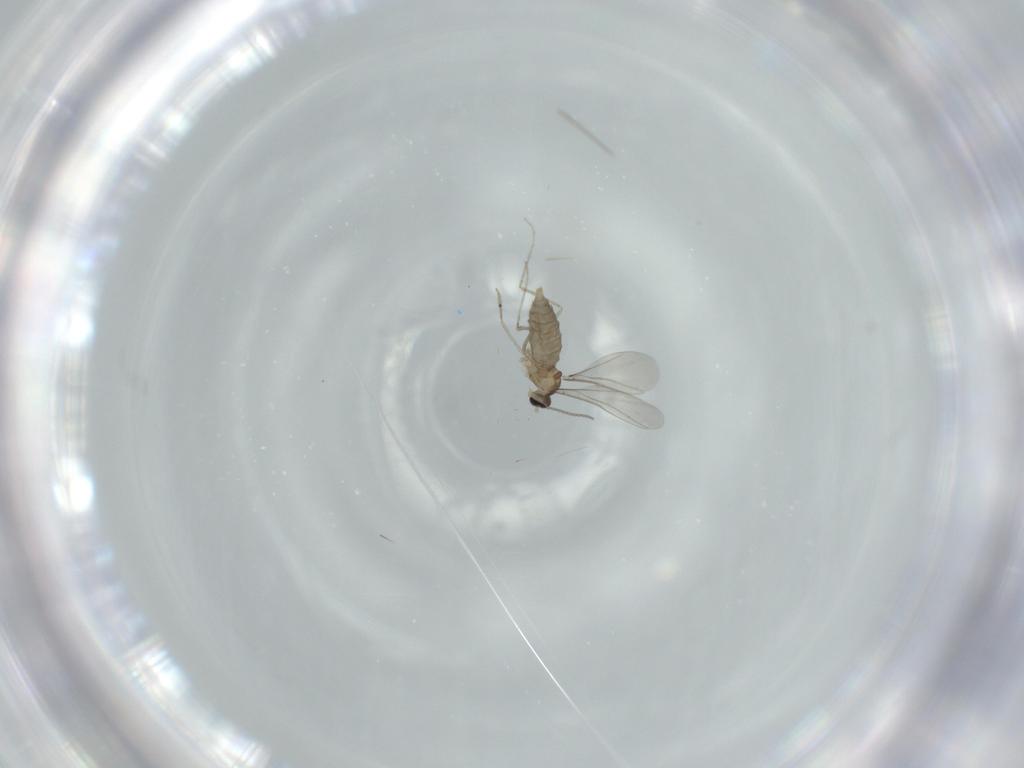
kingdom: Animalia
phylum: Arthropoda
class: Insecta
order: Diptera
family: Cecidomyiidae
